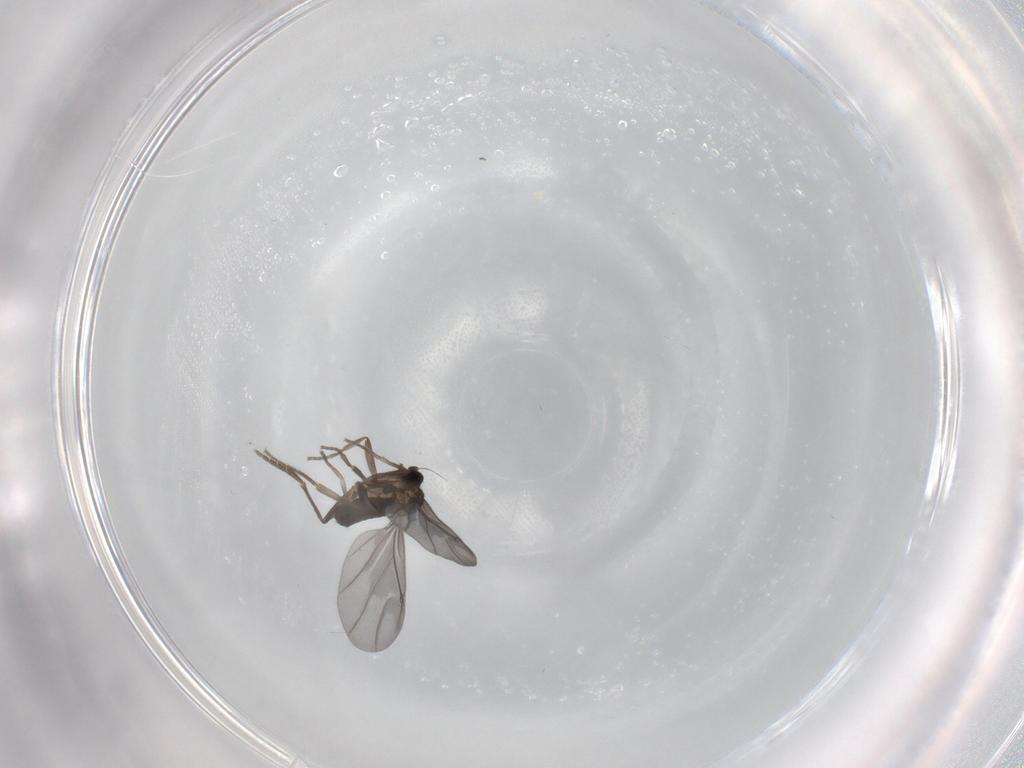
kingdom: Animalia
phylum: Arthropoda
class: Insecta
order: Diptera
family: Phoridae
